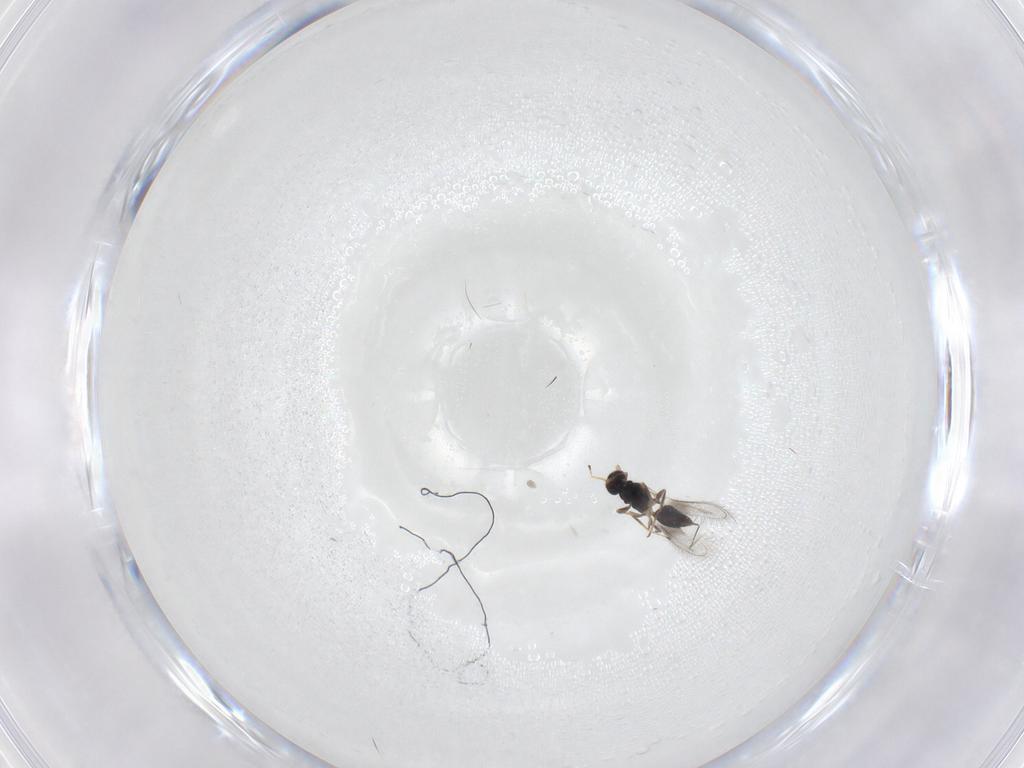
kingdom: Animalia
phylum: Arthropoda
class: Insecta
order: Hymenoptera
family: Mymaridae
